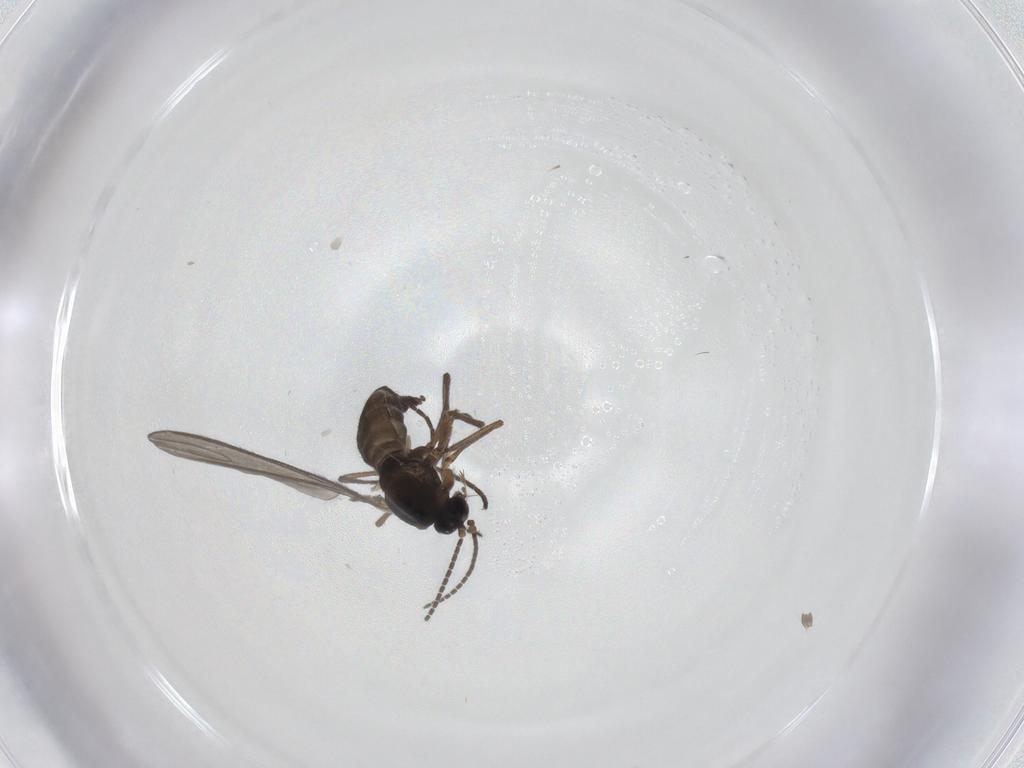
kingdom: Animalia
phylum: Arthropoda
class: Insecta
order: Diptera
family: Sciaridae
